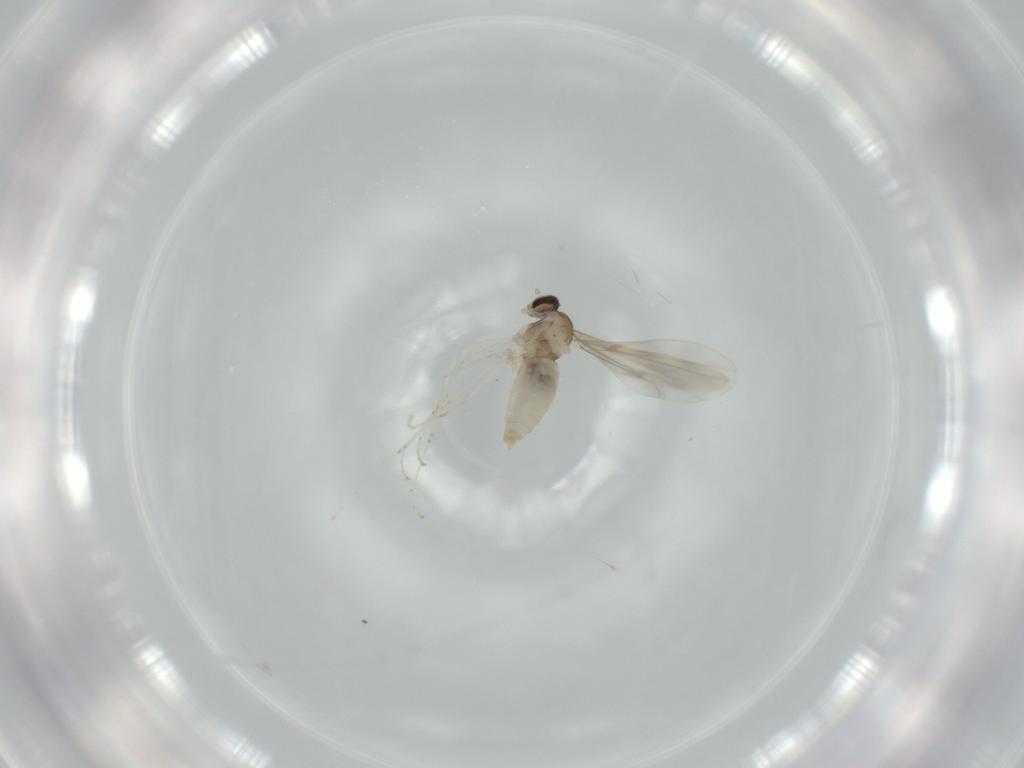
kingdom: Animalia
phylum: Arthropoda
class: Insecta
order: Diptera
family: Cecidomyiidae
